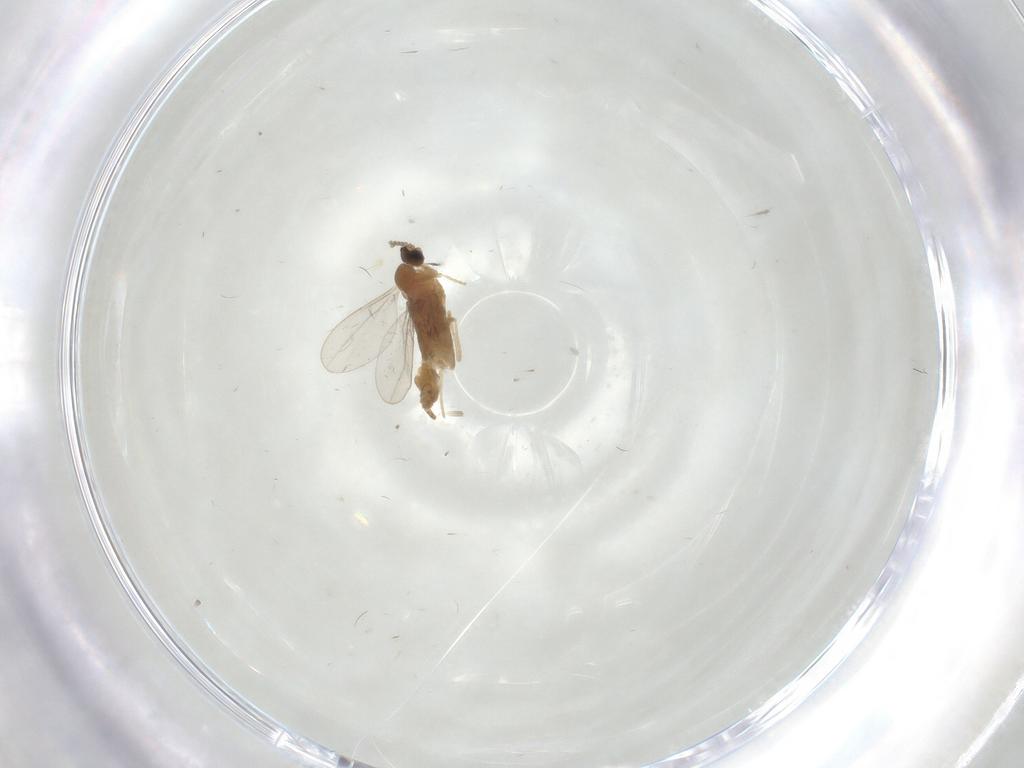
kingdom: Animalia
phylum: Arthropoda
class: Insecta
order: Diptera
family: Cecidomyiidae
